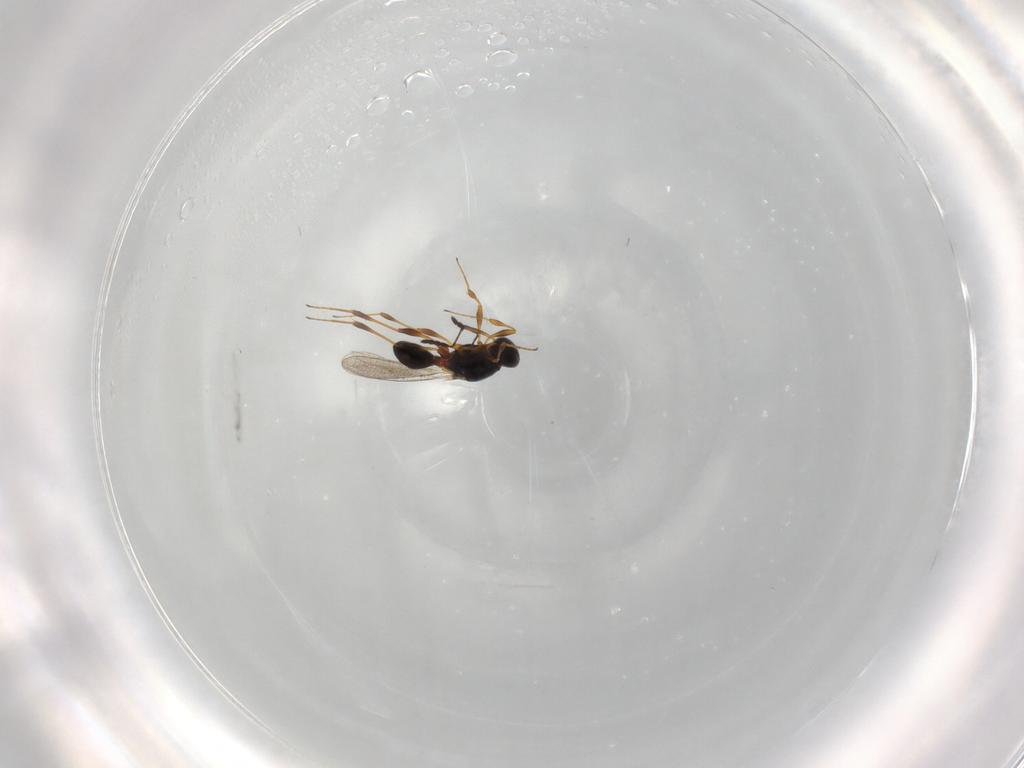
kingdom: Animalia
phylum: Arthropoda
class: Insecta
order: Hymenoptera
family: Platygastridae
